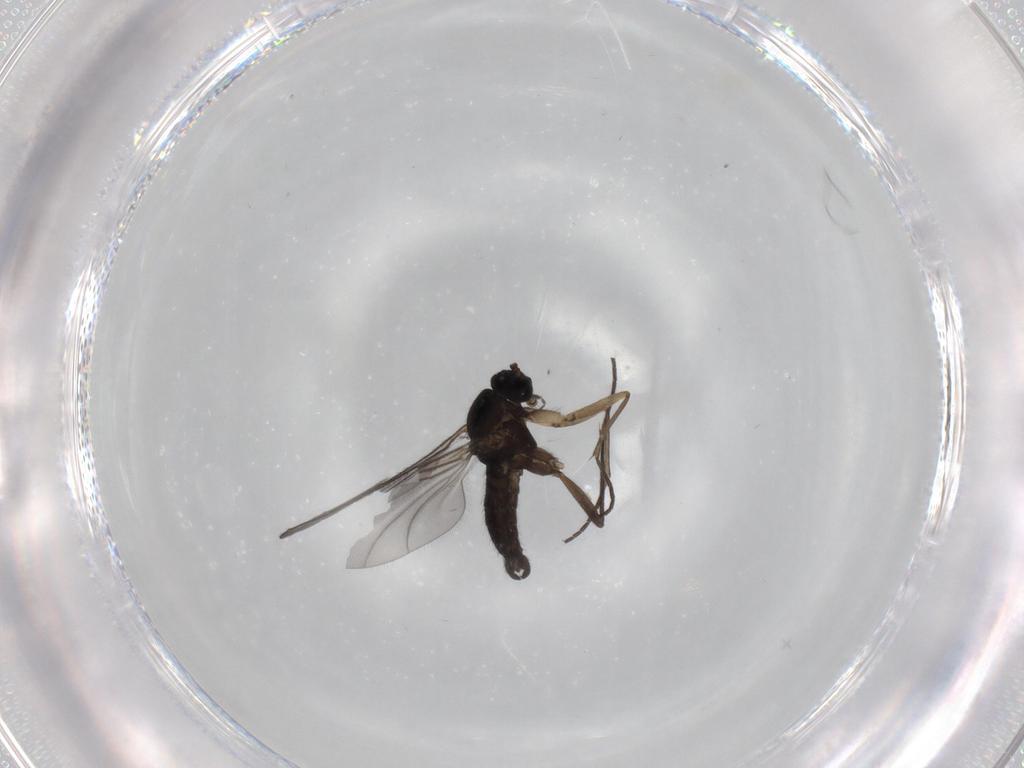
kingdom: Animalia
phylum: Arthropoda
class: Insecta
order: Diptera
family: Sciaridae
